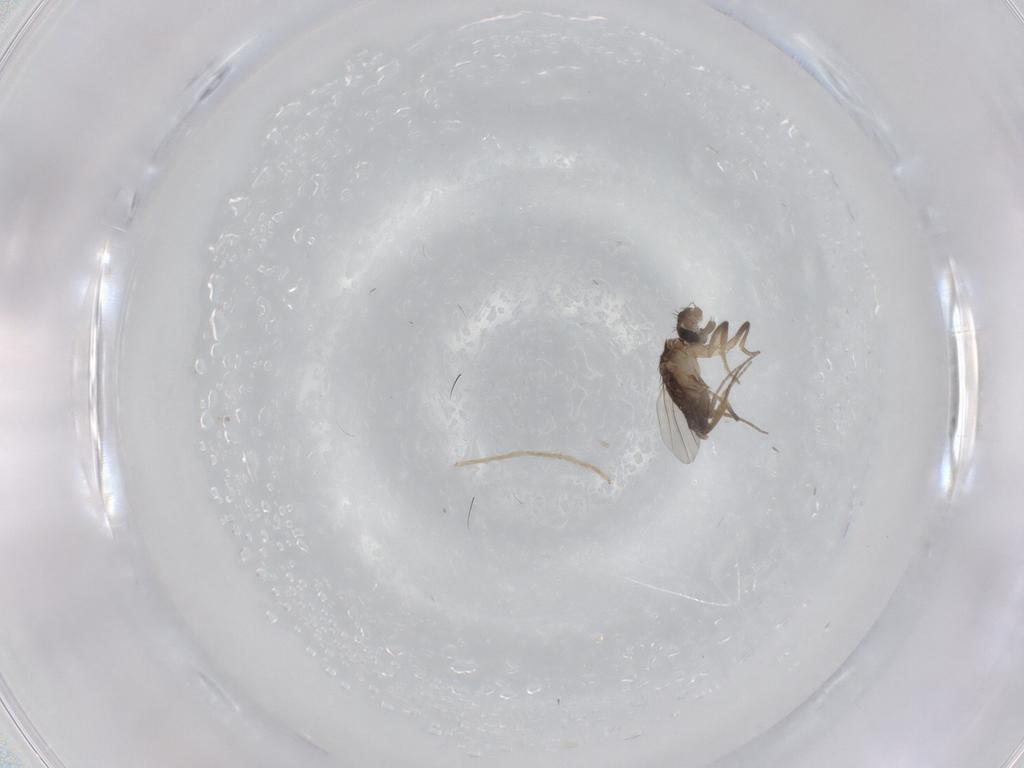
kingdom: Animalia
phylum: Arthropoda
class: Insecta
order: Diptera
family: Phoridae
